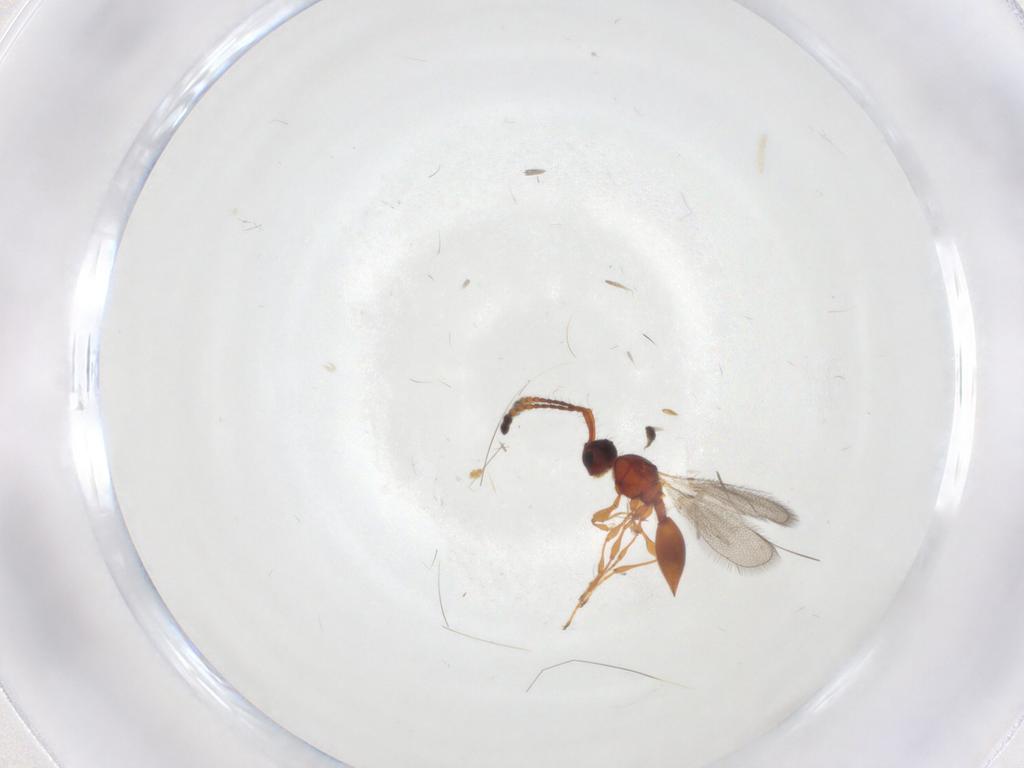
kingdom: Animalia
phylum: Arthropoda
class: Insecta
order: Hymenoptera
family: Diapriidae
